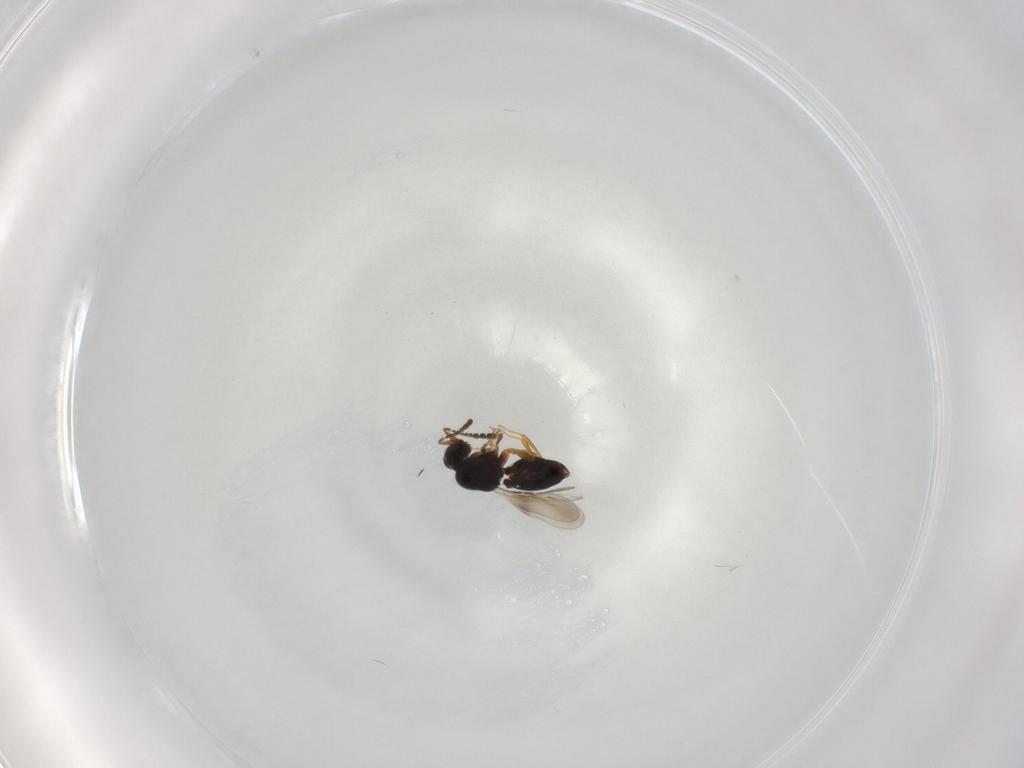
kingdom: Animalia
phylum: Arthropoda
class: Insecta
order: Hymenoptera
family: Ceraphronidae
